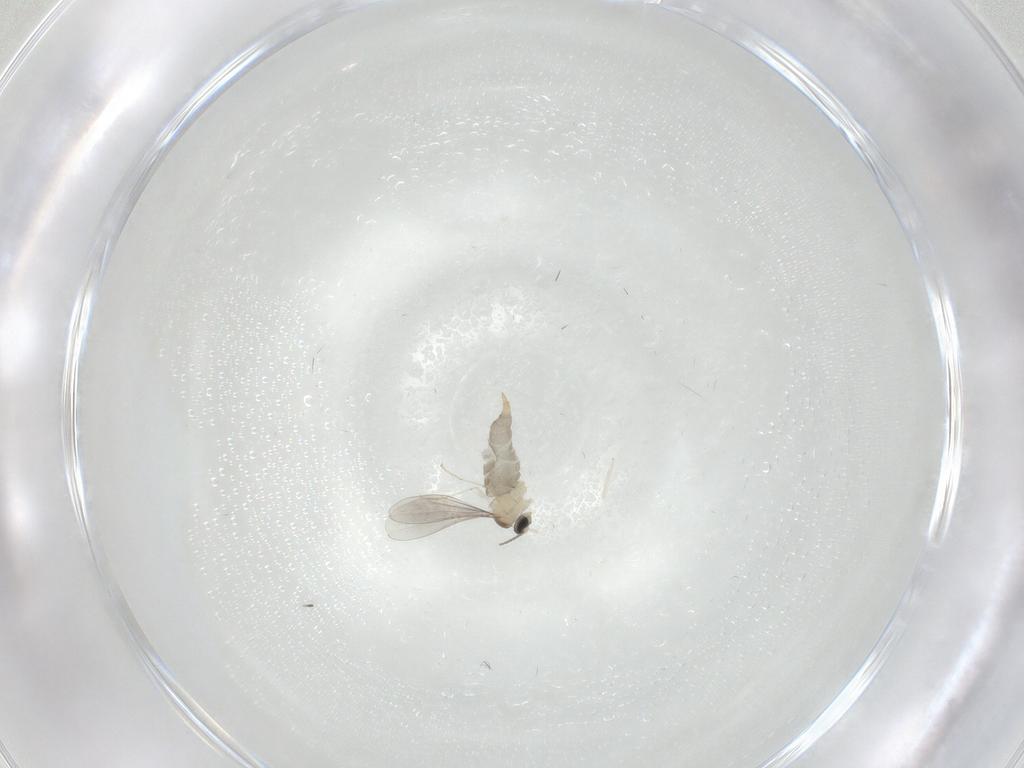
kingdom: Animalia
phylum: Arthropoda
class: Insecta
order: Diptera
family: Cecidomyiidae
